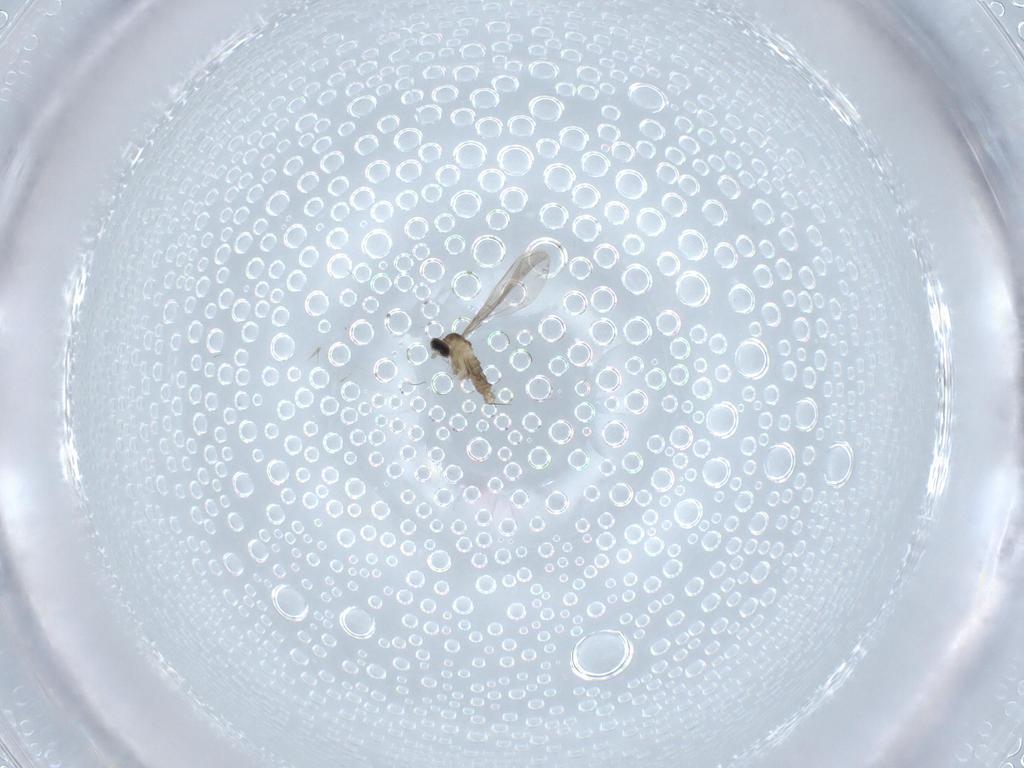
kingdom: Animalia
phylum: Arthropoda
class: Insecta
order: Diptera
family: Cecidomyiidae
